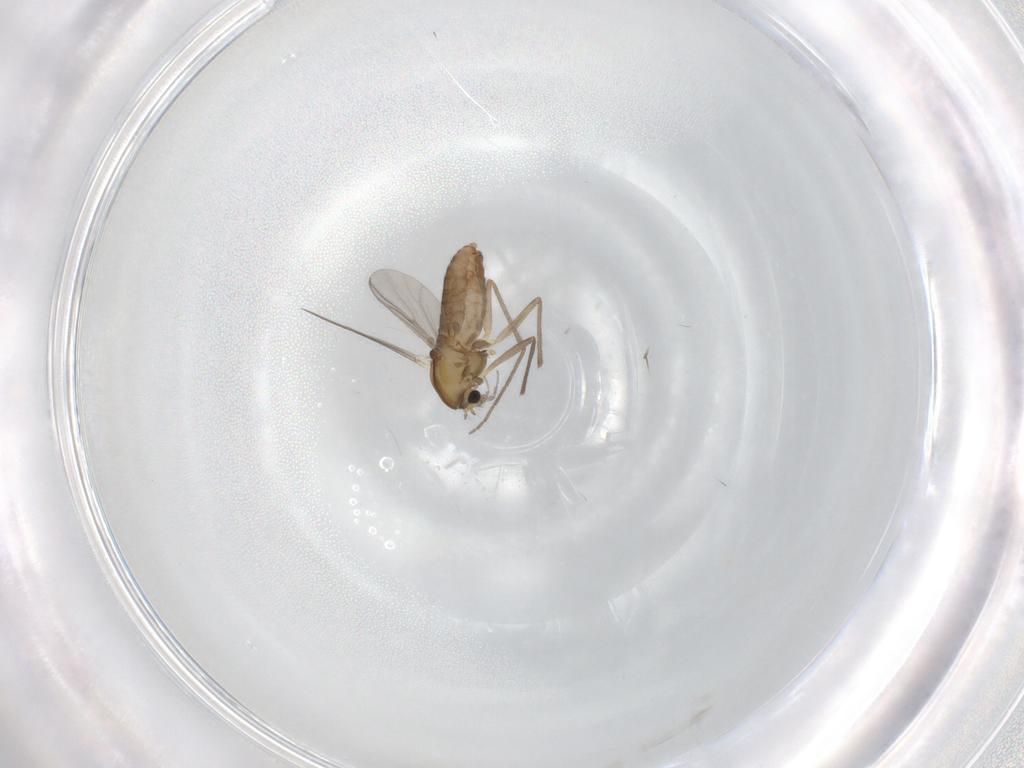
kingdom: Animalia
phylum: Arthropoda
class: Insecta
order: Diptera
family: Chironomidae
